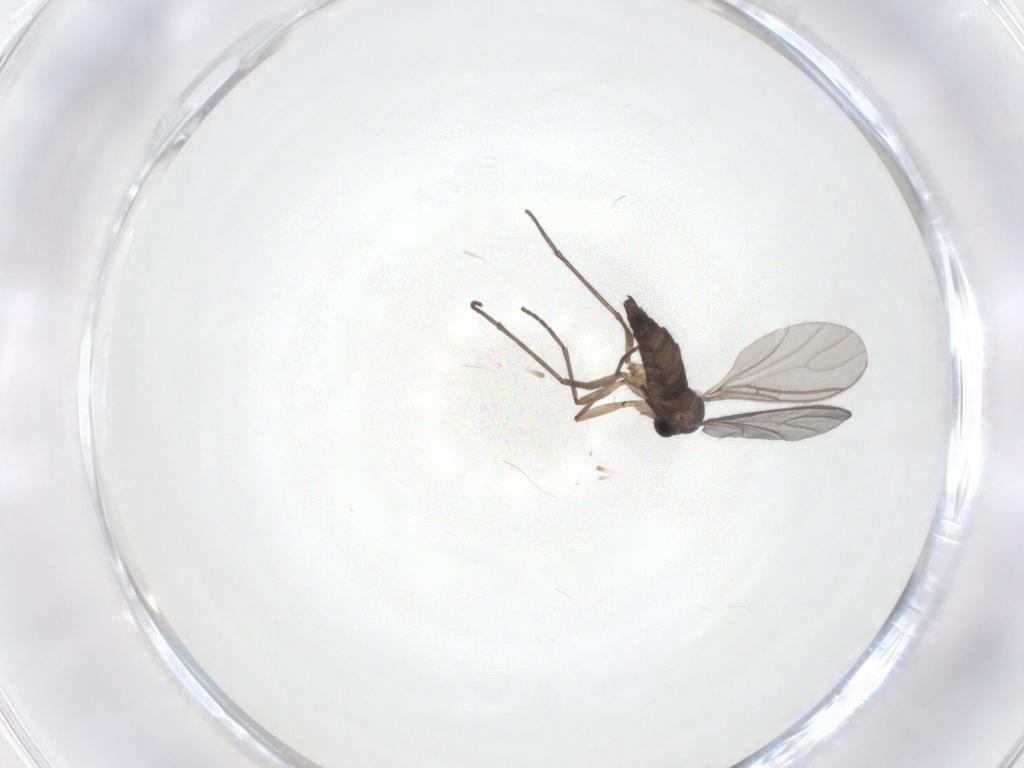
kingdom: Animalia
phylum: Arthropoda
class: Insecta
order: Diptera
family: Sciaridae
